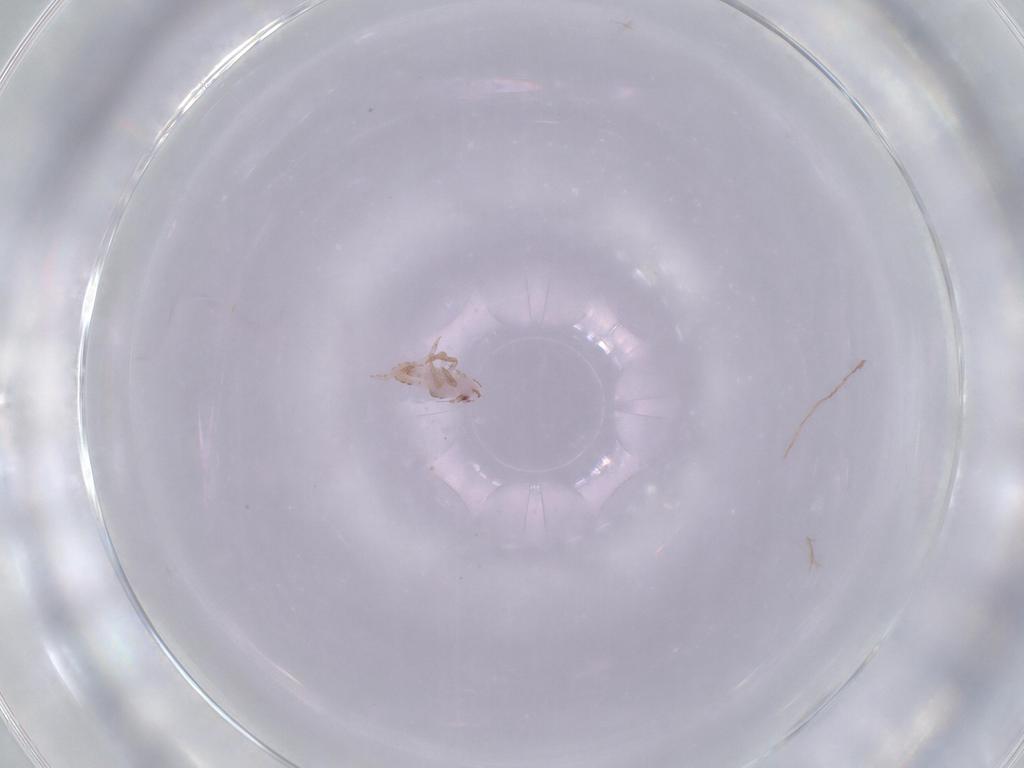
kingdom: Animalia
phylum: Arthropoda
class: Insecta
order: Hemiptera
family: Delphacidae
